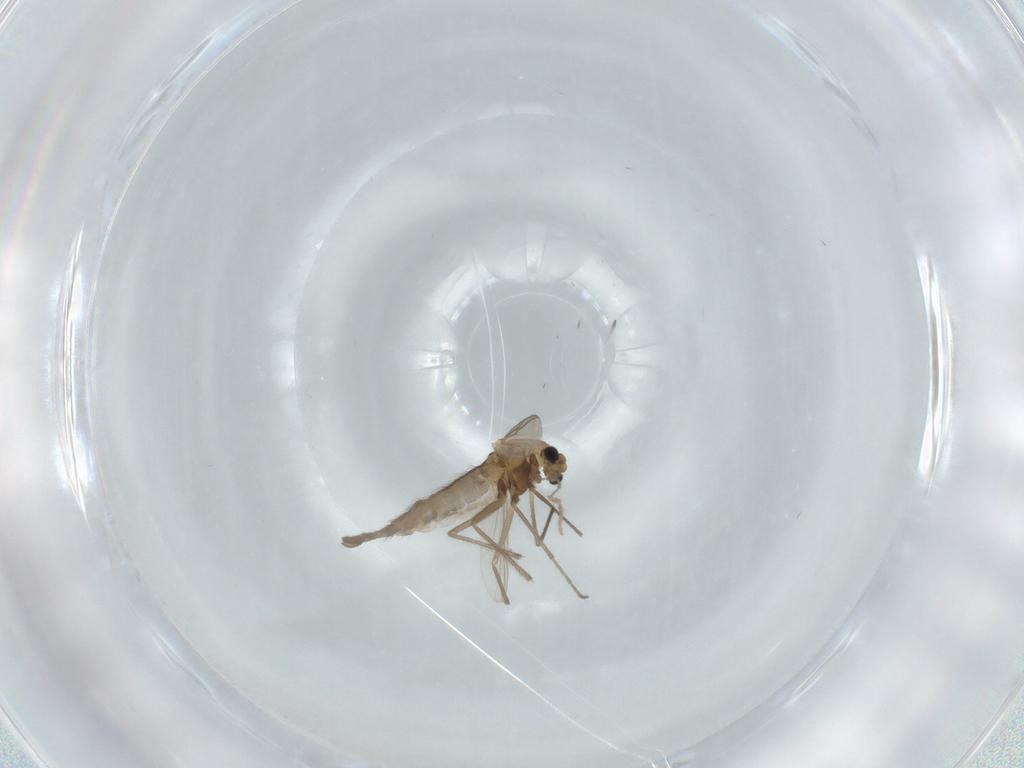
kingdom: Animalia
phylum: Arthropoda
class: Insecta
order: Diptera
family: Chironomidae
